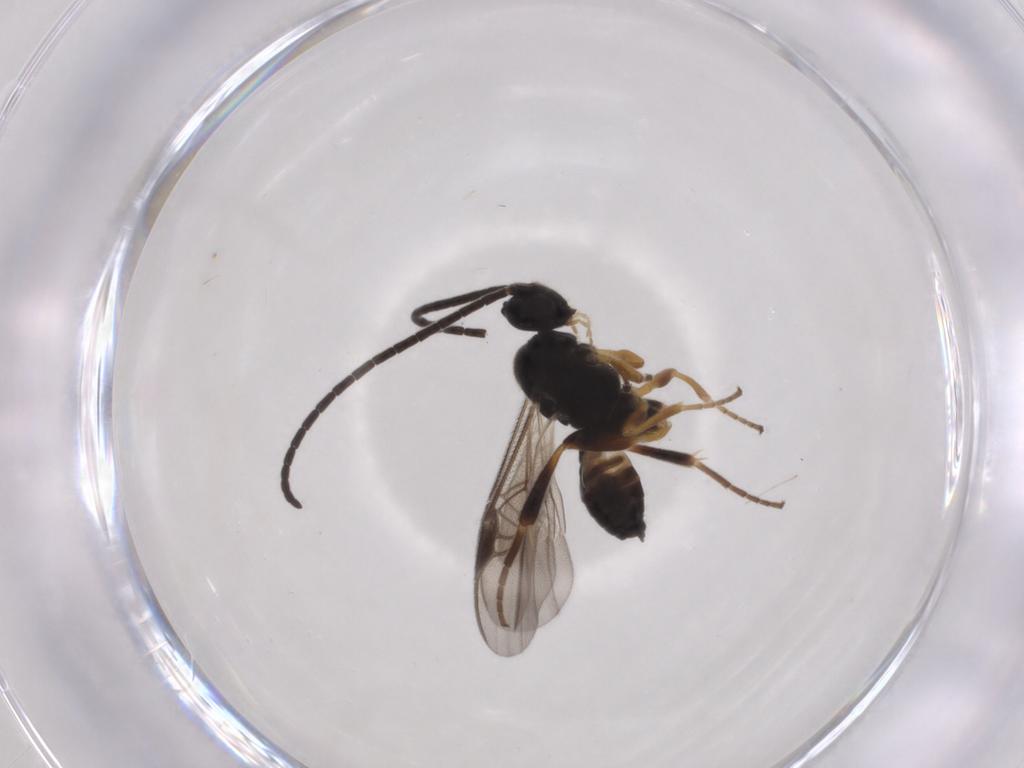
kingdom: Animalia
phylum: Arthropoda
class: Insecta
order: Hymenoptera
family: Braconidae
